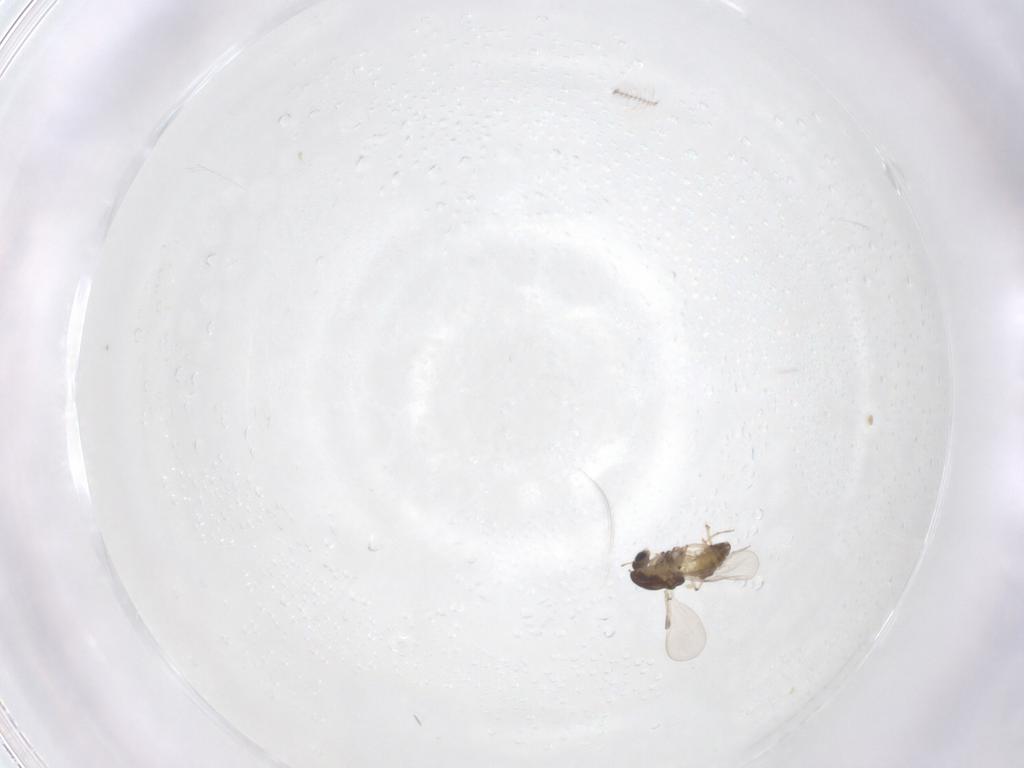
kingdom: Animalia
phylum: Arthropoda
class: Insecta
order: Diptera
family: Chironomidae
